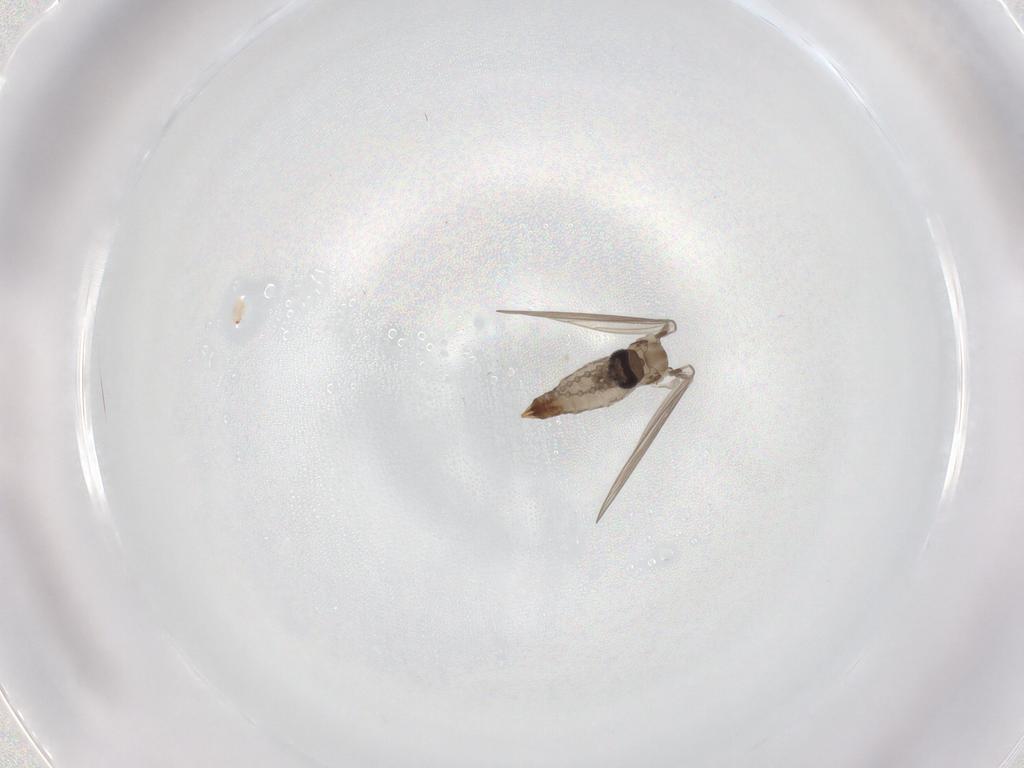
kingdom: Animalia
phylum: Arthropoda
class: Insecta
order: Diptera
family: Psychodidae
